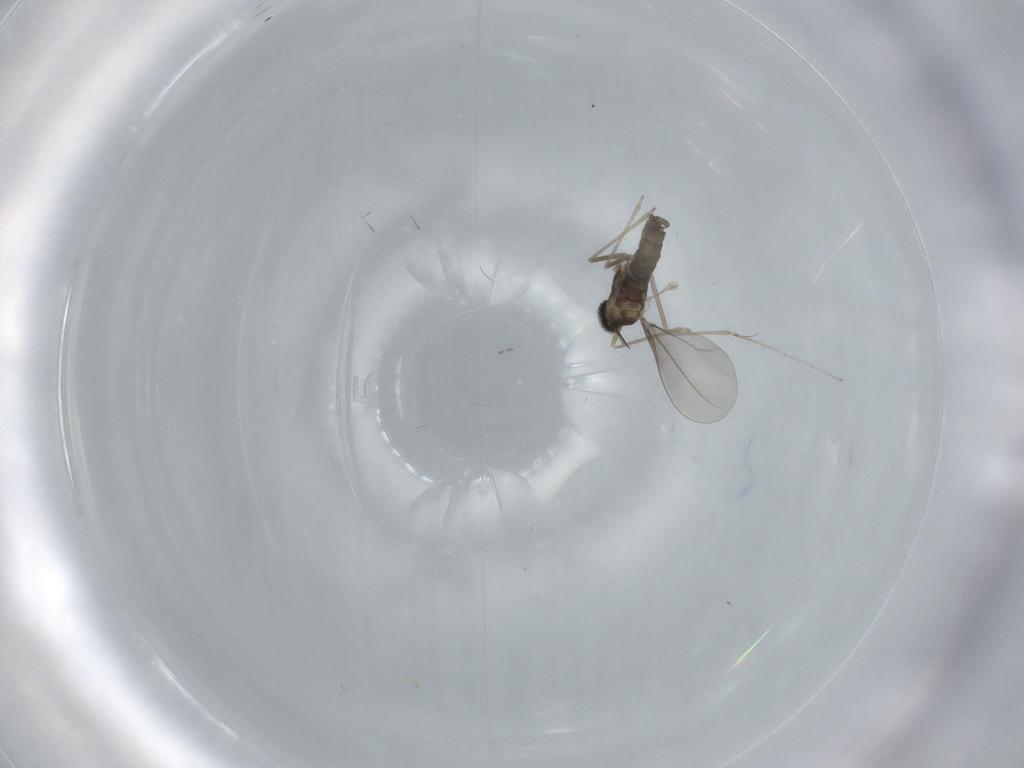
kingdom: Animalia
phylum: Arthropoda
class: Insecta
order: Diptera
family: Cecidomyiidae
